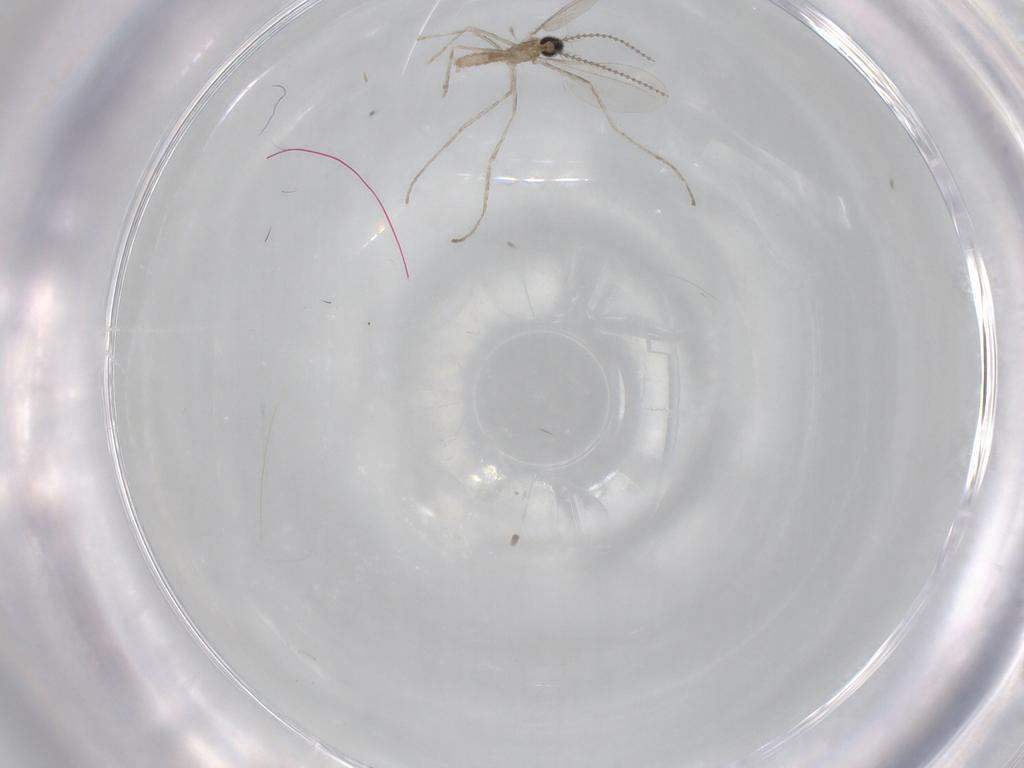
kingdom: Animalia
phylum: Arthropoda
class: Insecta
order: Diptera
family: Cecidomyiidae
